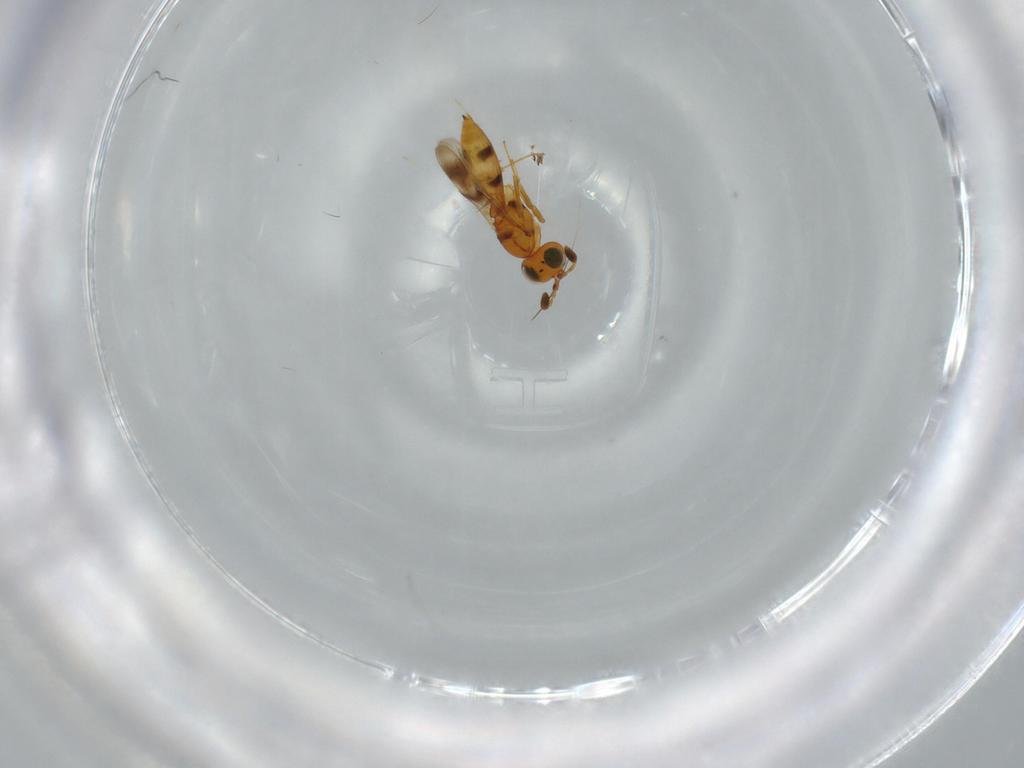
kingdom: Animalia
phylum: Arthropoda
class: Insecta
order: Hymenoptera
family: Scelionidae
